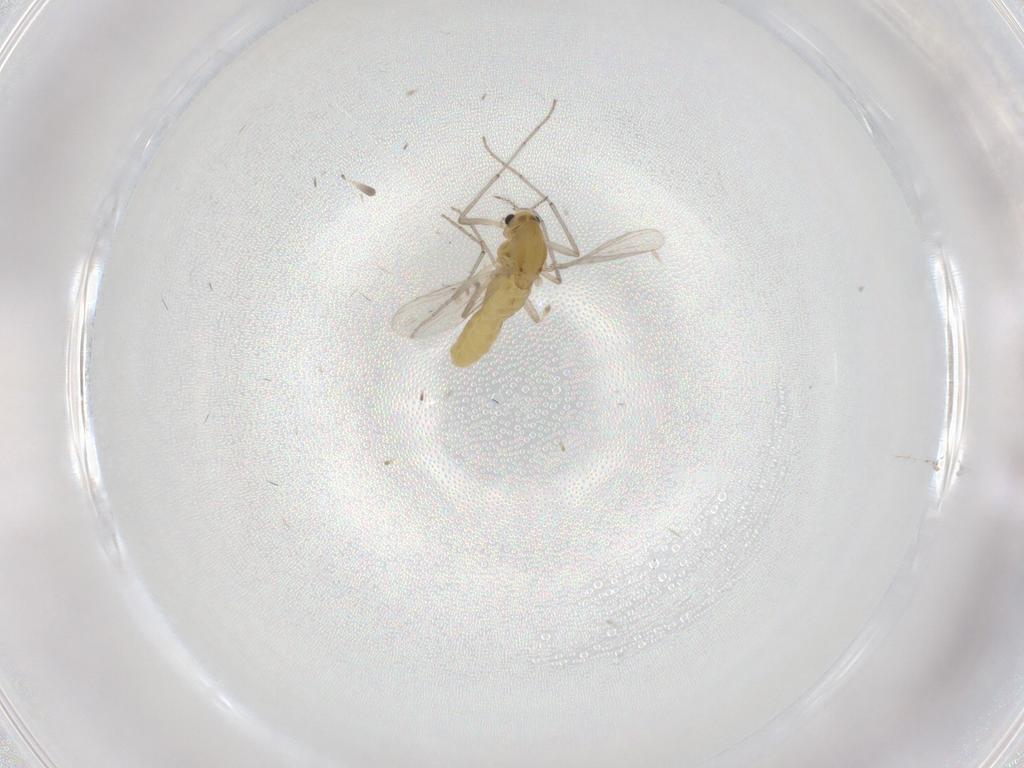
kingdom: Animalia
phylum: Arthropoda
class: Insecta
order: Diptera
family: Chironomidae
